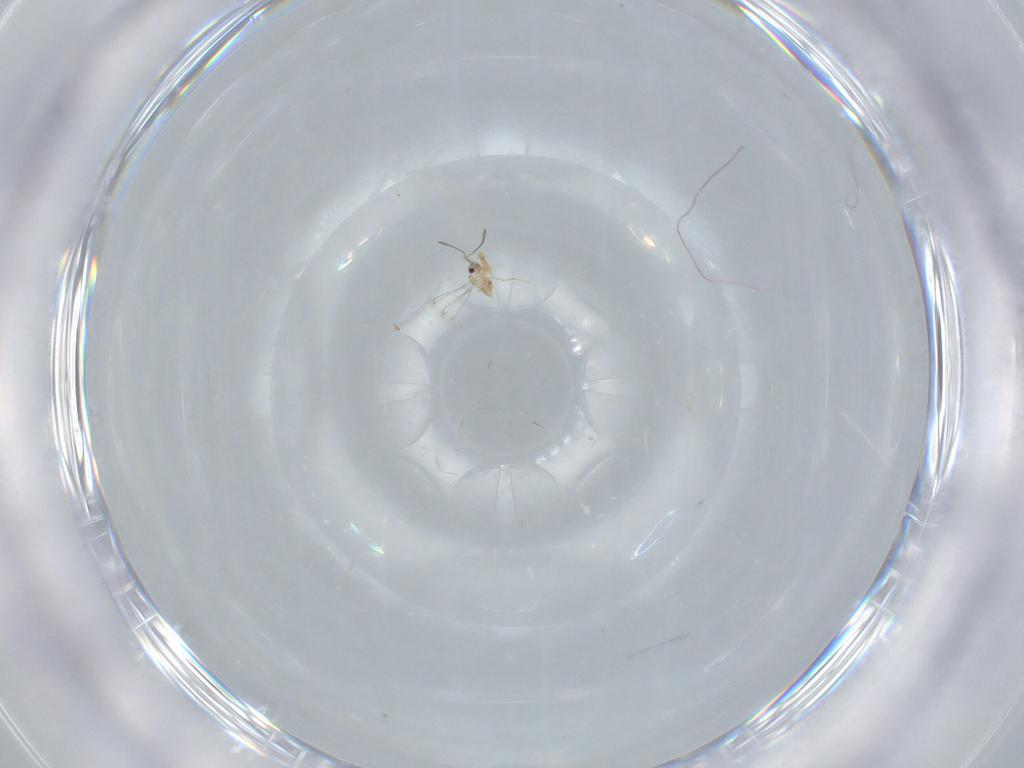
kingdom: Animalia
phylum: Arthropoda
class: Insecta
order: Hymenoptera
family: Mymaridae
